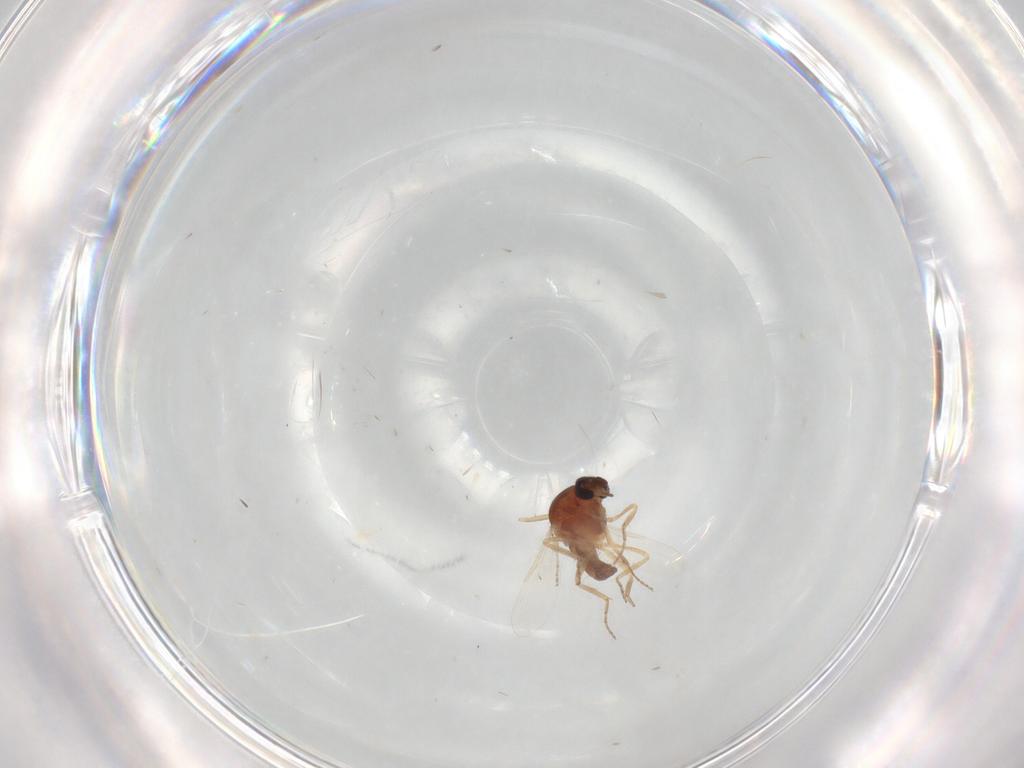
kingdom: Animalia
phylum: Arthropoda
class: Insecta
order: Diptera
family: Ceratopogonidae
